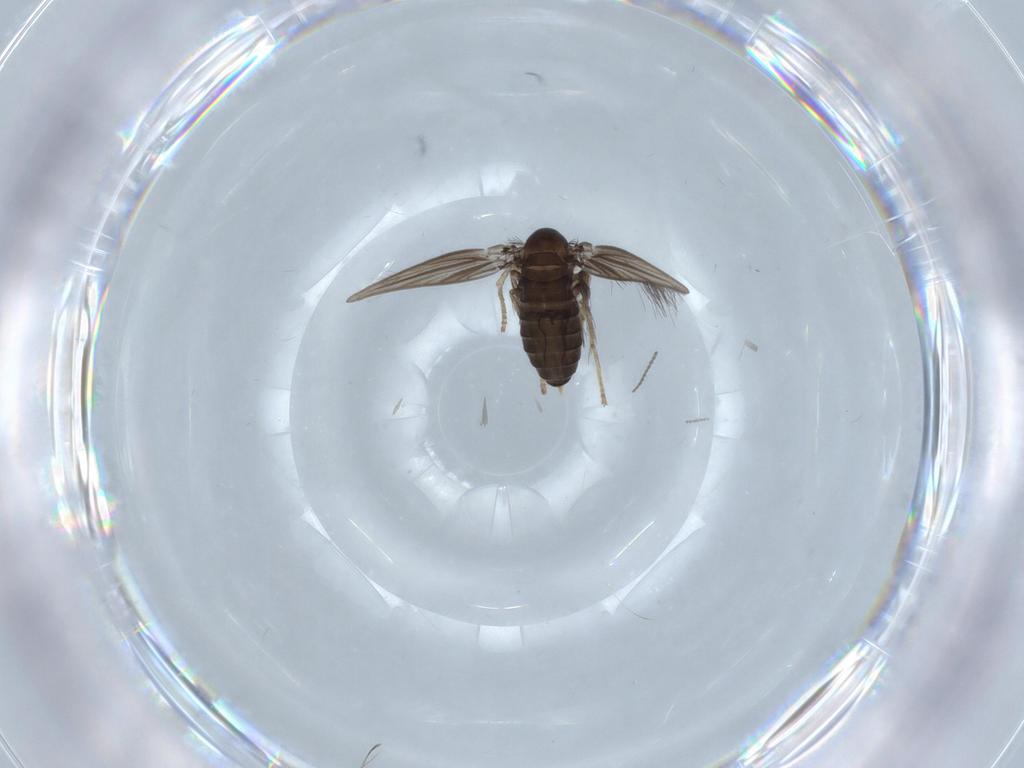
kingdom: Animalia
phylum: Arthropoda
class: Insecta
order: Diptera
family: Psychodidae
